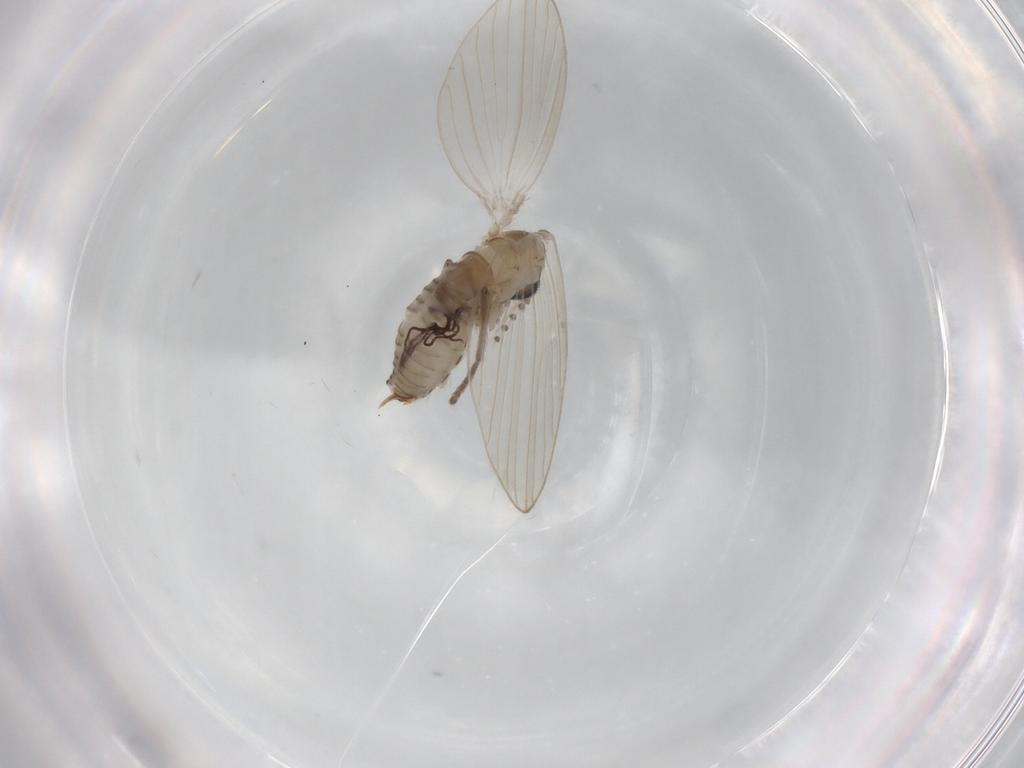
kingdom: Animalia
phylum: Arthropoda
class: Insecta
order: Diptera
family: Psychodidae
